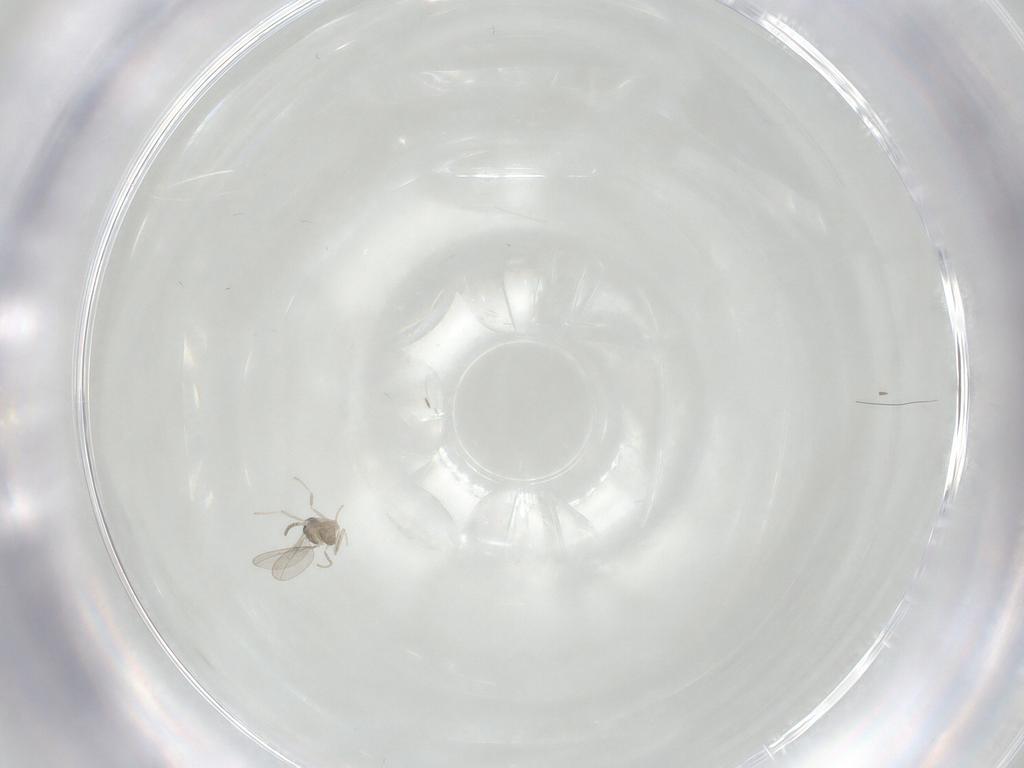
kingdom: Animalia
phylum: Arthropoda
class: Insecta
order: Diptera
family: Cecidomyiidae
